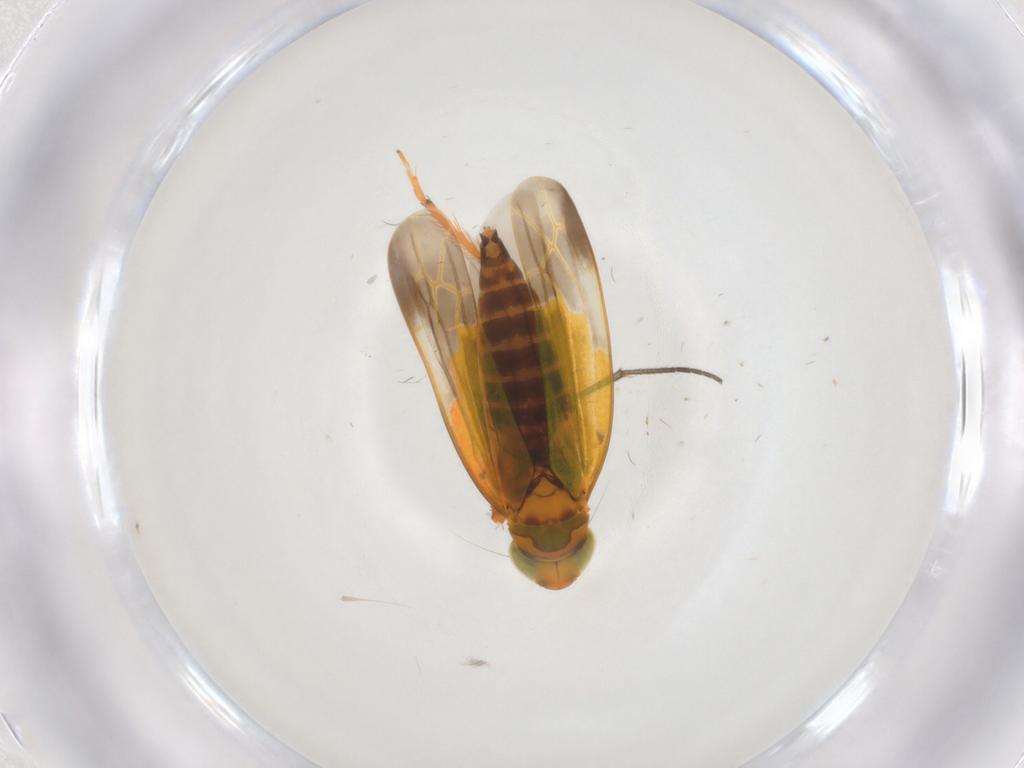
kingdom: Animalia
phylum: Arthropoda
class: Insecta
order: Hemiptera
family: Cicadellidae
